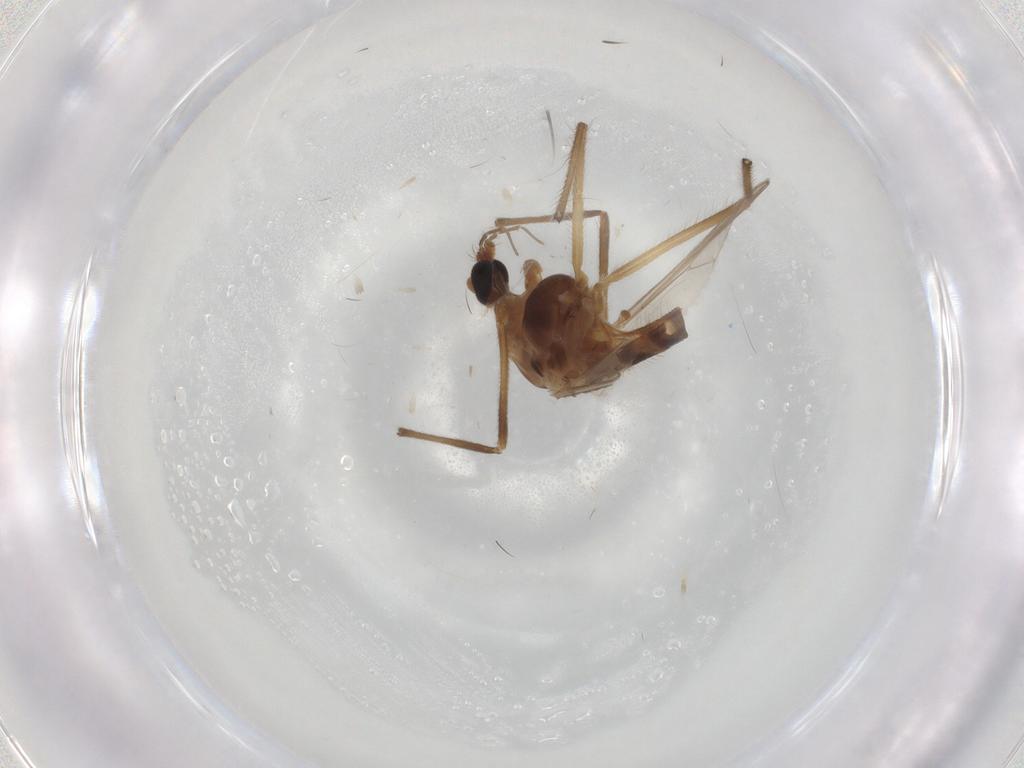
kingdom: Animalia
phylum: Arthropoda
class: Insecta
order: Diptera
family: Chironomidae
